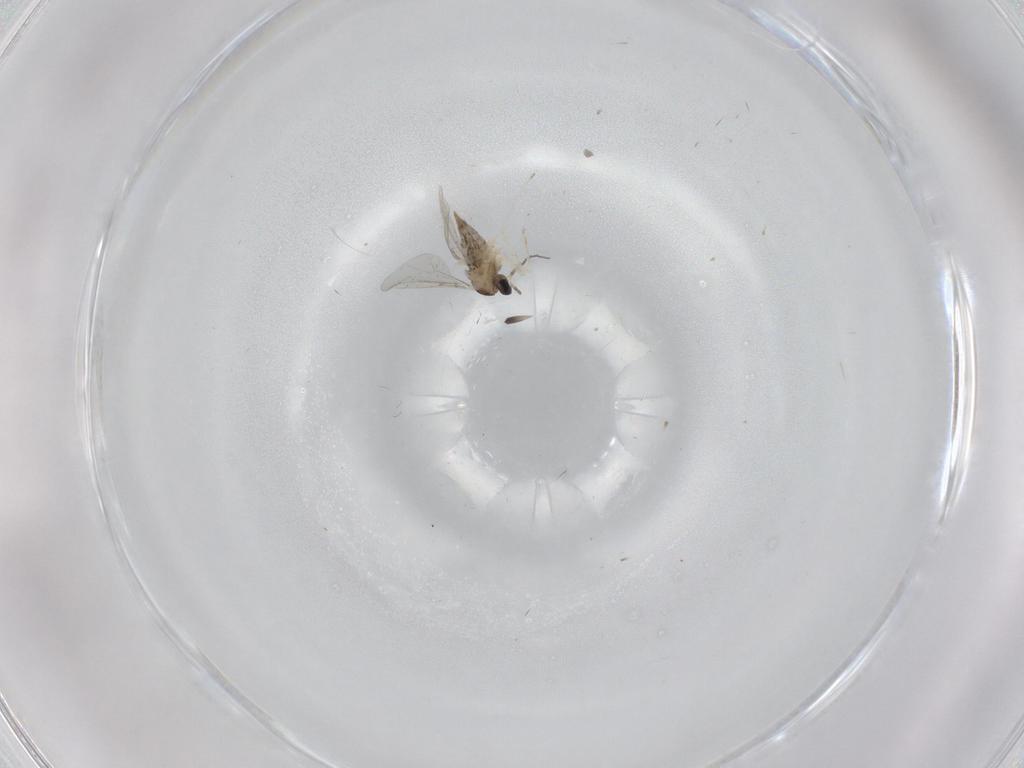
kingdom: Animalia
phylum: Arthropoda
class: Insecta
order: Diptera
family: Cecidomyiidae
